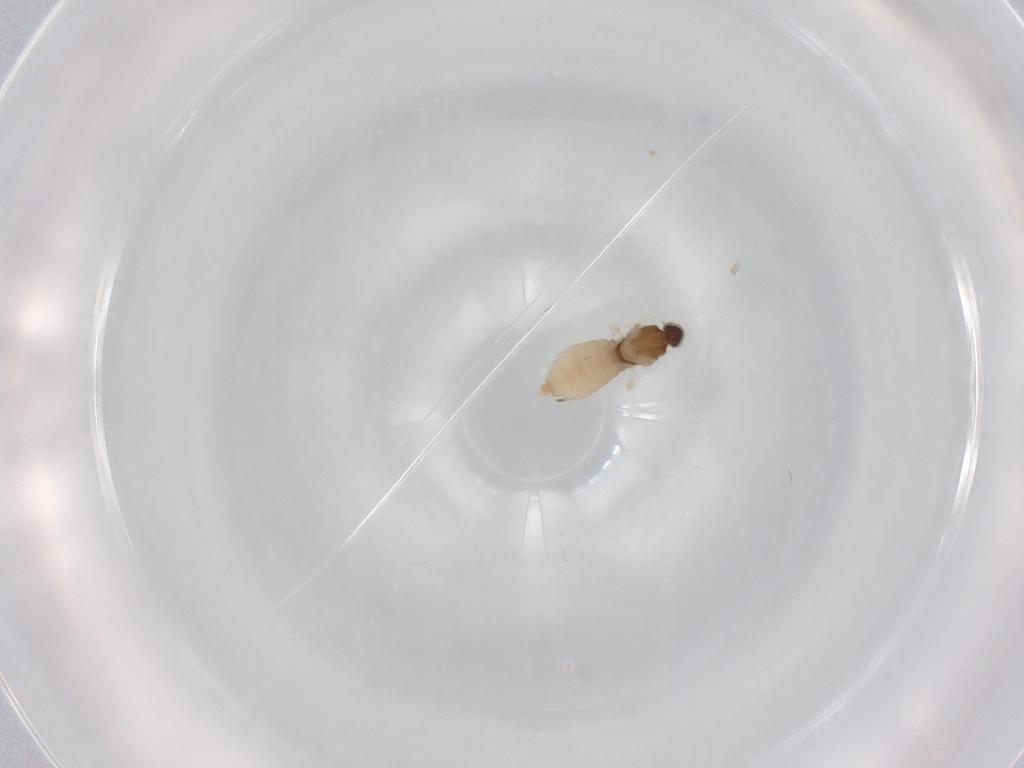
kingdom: Animalia
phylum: Arthropoda
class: Insecta
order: Diptera
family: Cecidomyiidae
